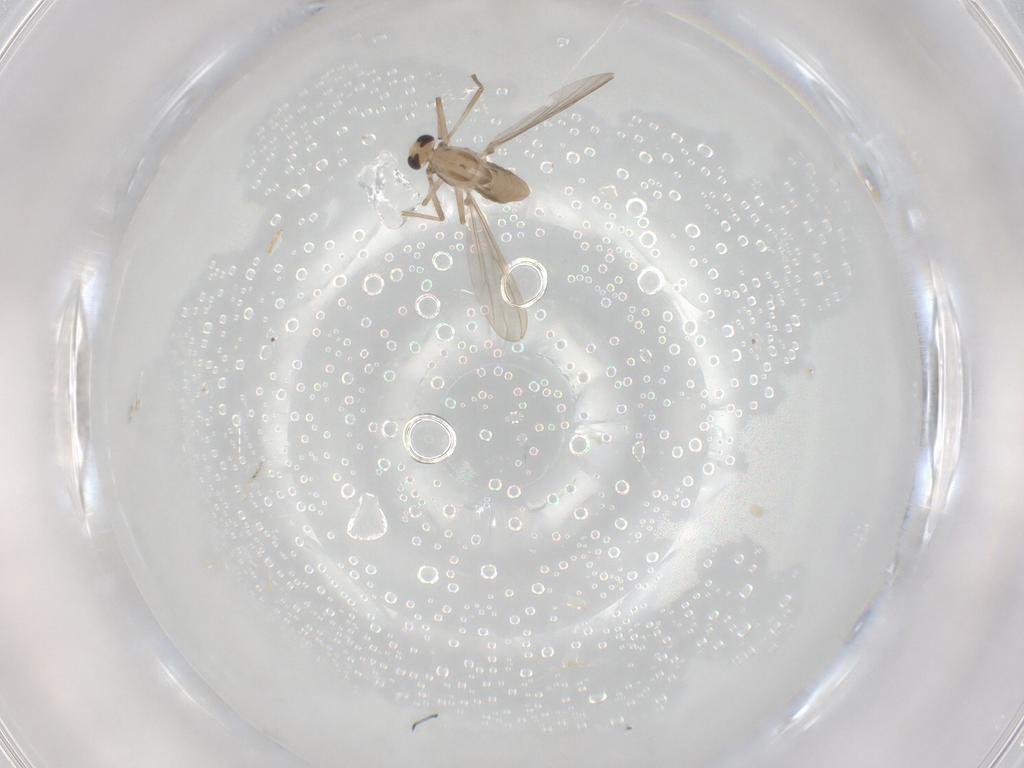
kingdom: Animalia
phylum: Arthropoda
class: Insecta
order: Diptera
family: Chironomidae
